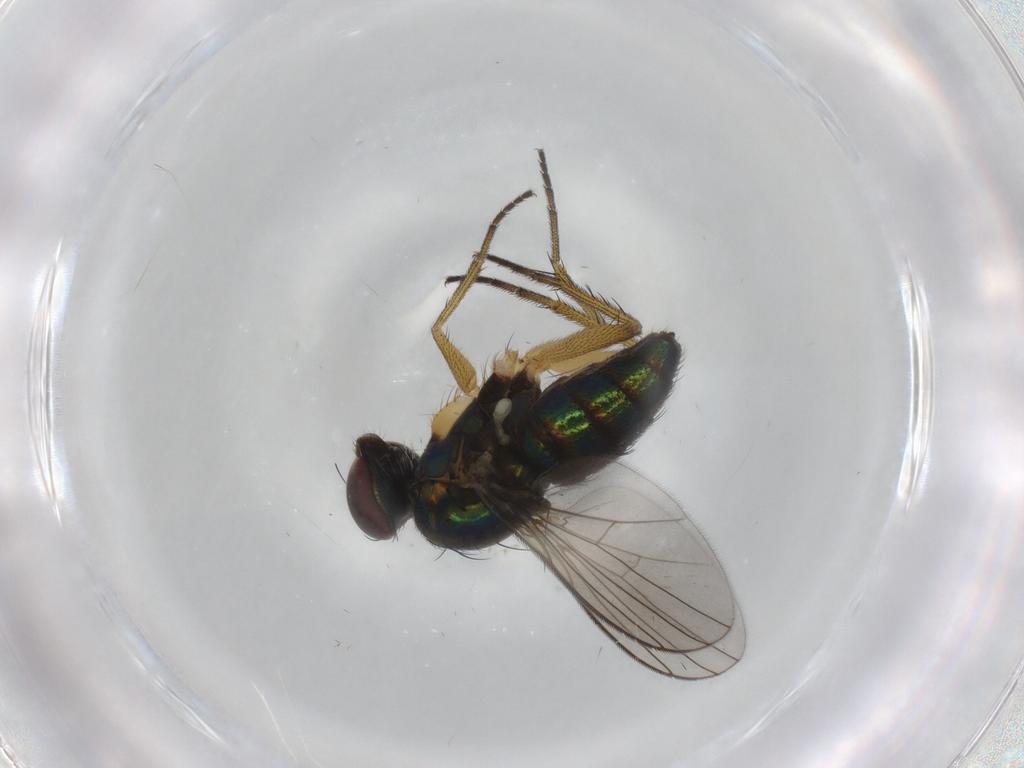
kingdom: Animalia
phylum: Arthropoda
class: Insecta
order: Diptera
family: Dolichopodidae
